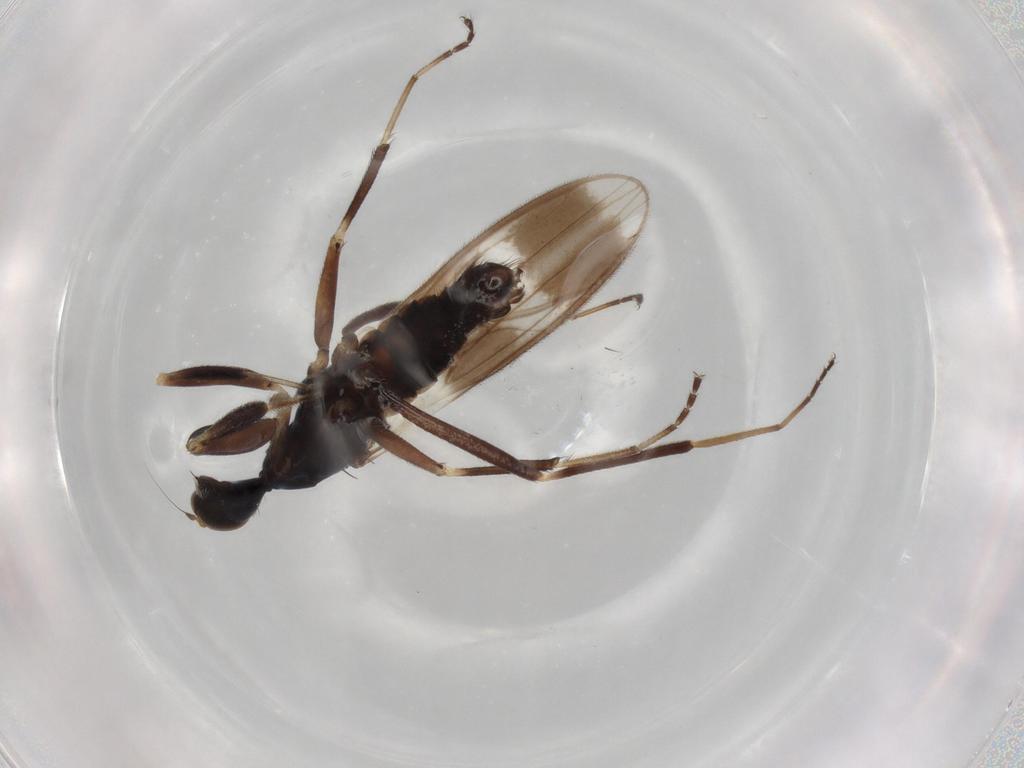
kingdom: Animalia
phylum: Arthropoda
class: Insecta
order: Diptera
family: Hybotidae
